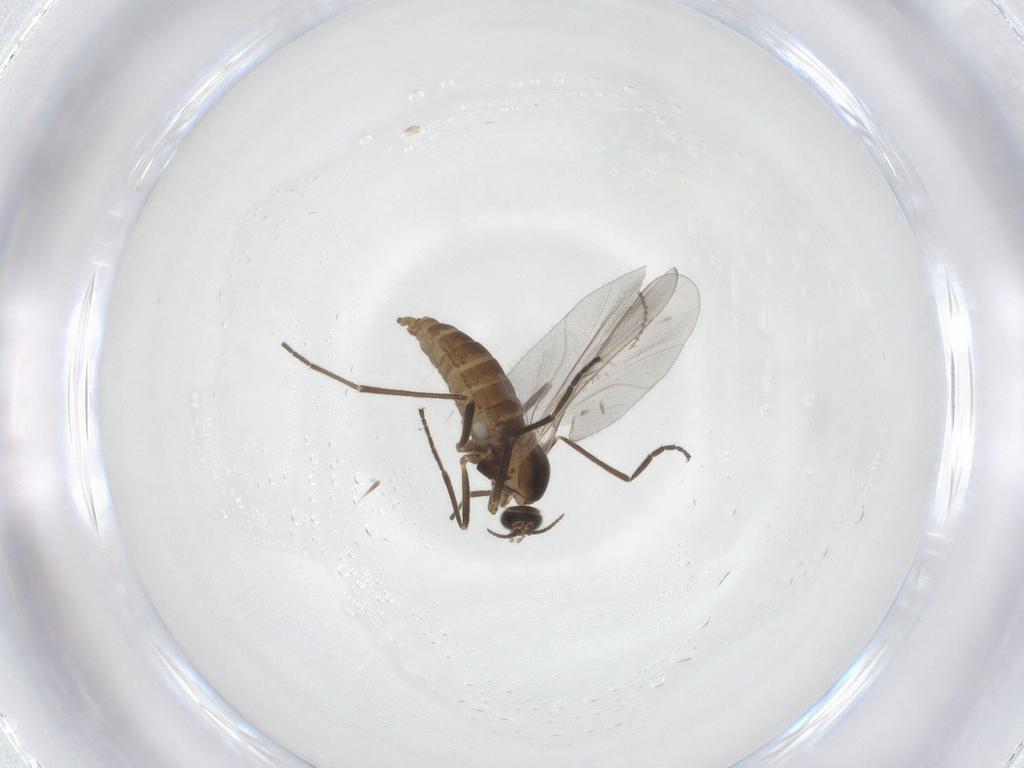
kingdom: Animalia
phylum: Arthropoda
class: Insecta
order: Diptera
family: Cecidomyiidae
